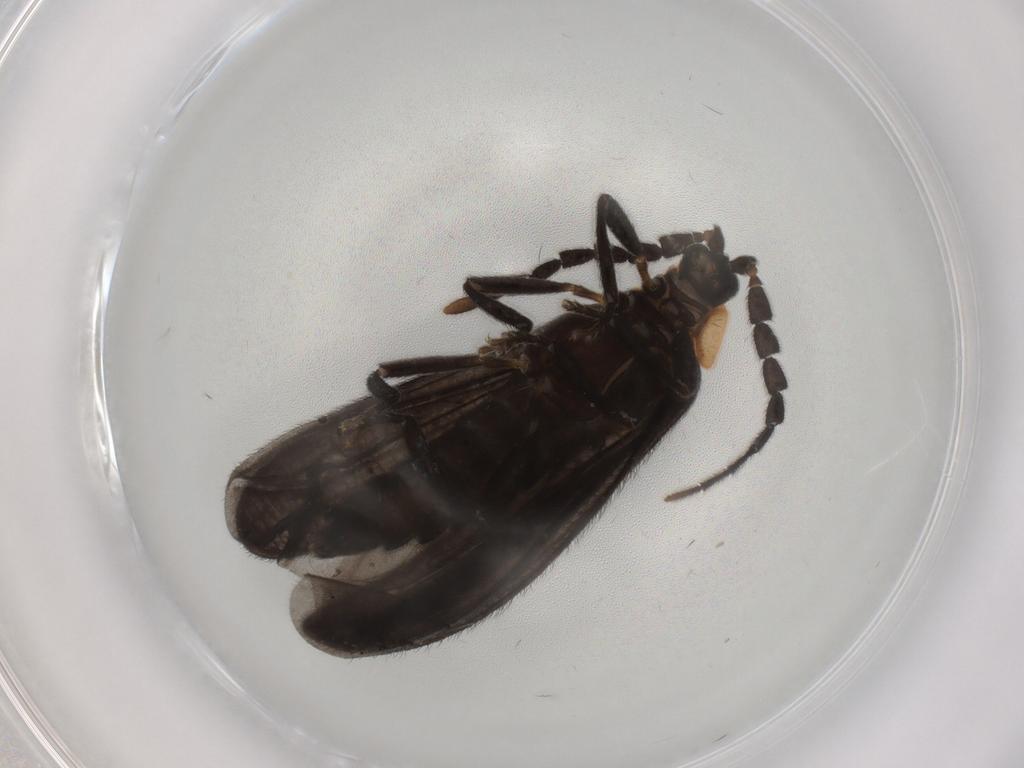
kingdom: Animalia
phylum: Arthropoda
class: Insecta
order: Coleoptera
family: Lycidae
